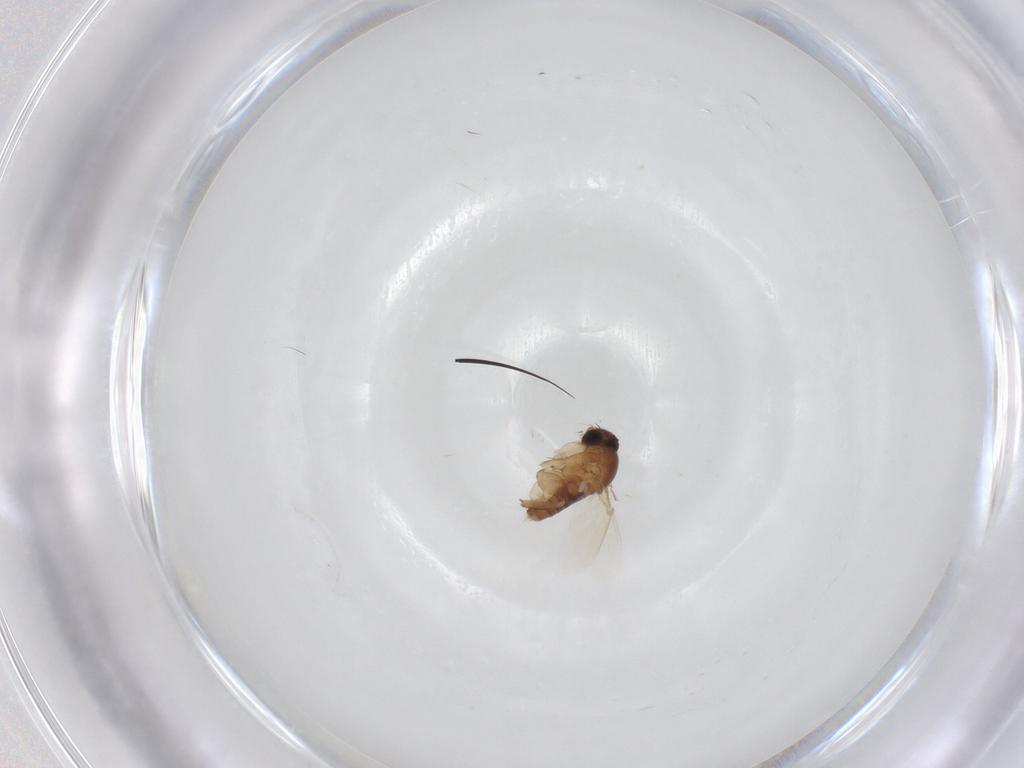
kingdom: Animalia
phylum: Arthropoda
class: Insecta
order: Diptera
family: Phoridae
